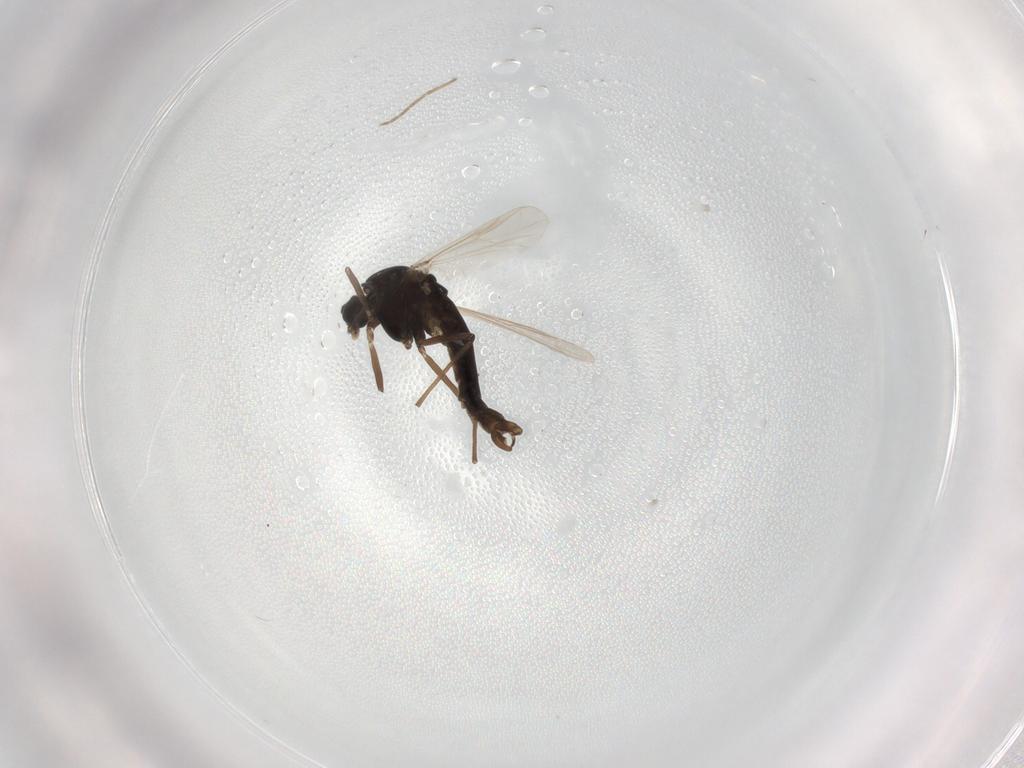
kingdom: Animalia
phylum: Arthropoda
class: Insecta
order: Diptera
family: Chironomidae
